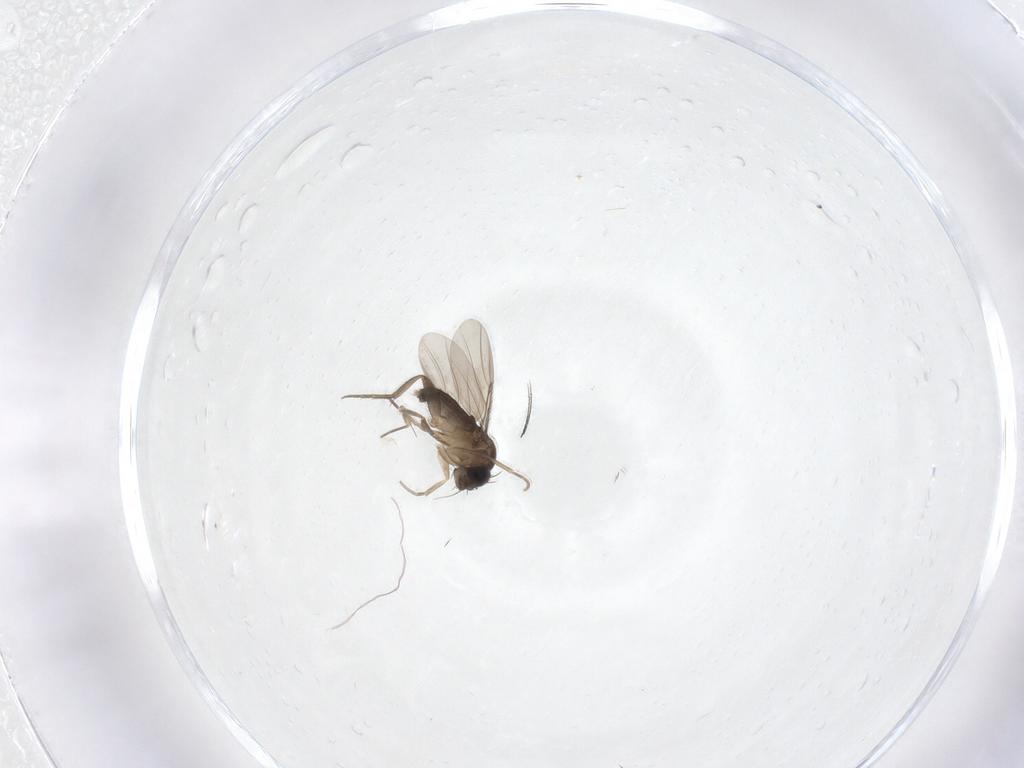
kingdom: Animalia
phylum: Arthropoda
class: Insecta
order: Diptera
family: Phoridae
